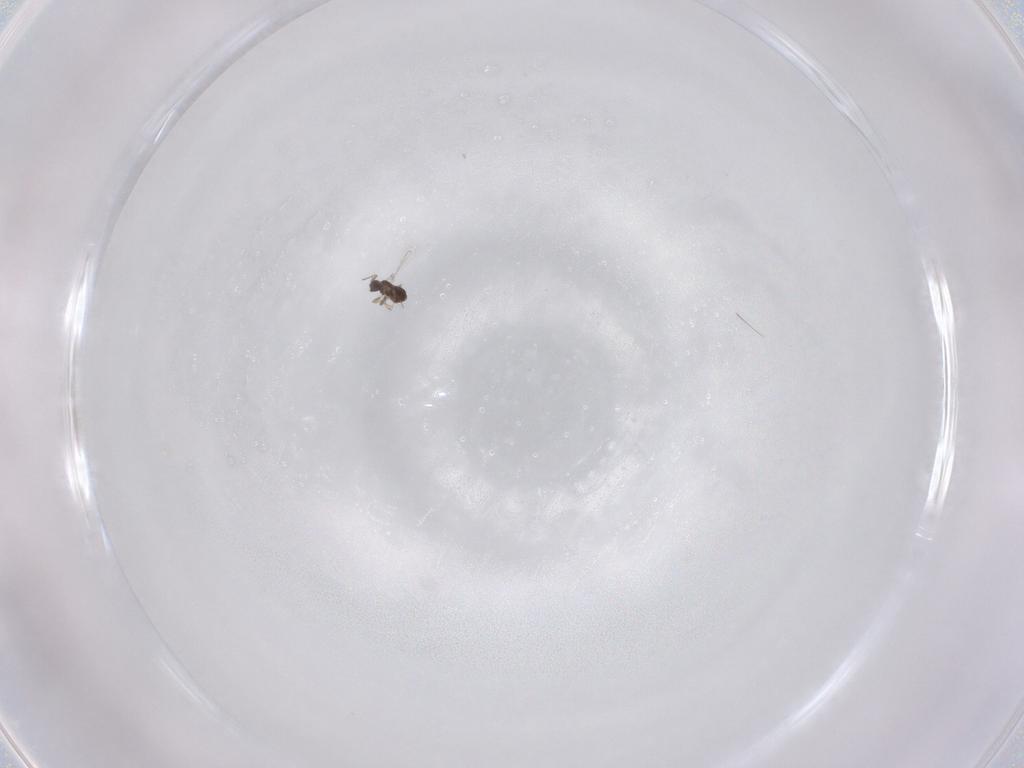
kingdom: Animalia
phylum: Arthropoda
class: Insecta
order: Hymenoptera
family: Mymaridae
